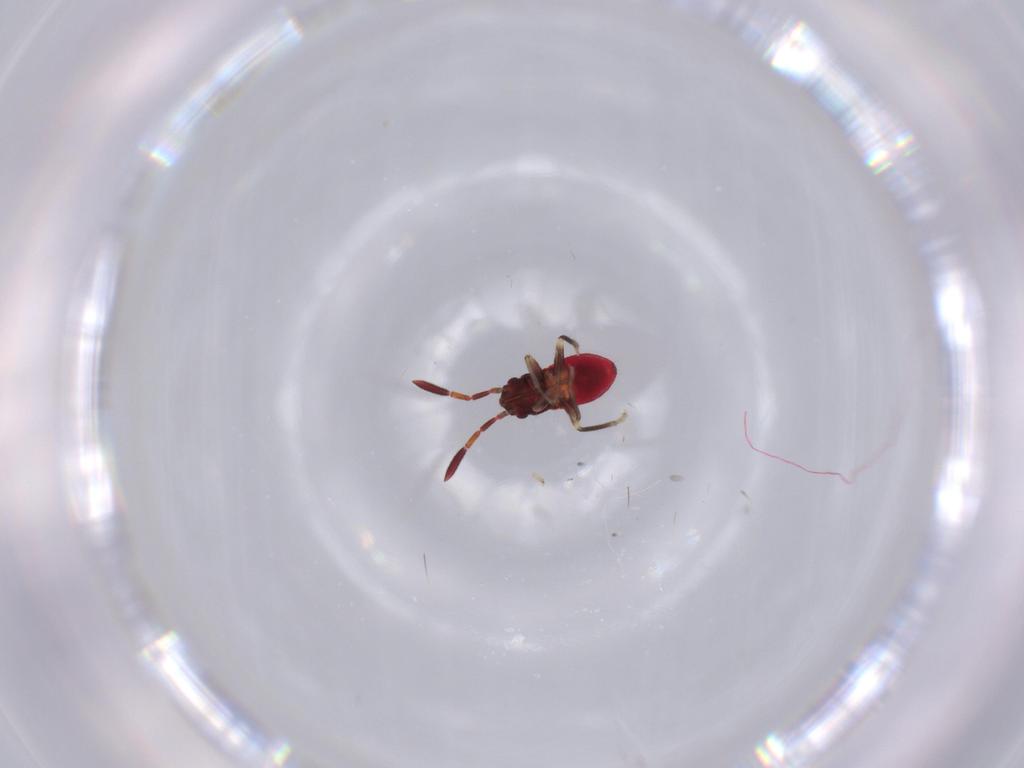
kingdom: Animalia
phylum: Arthropoda
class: Insecta
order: Hemiptera
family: Rhyparochromidae
